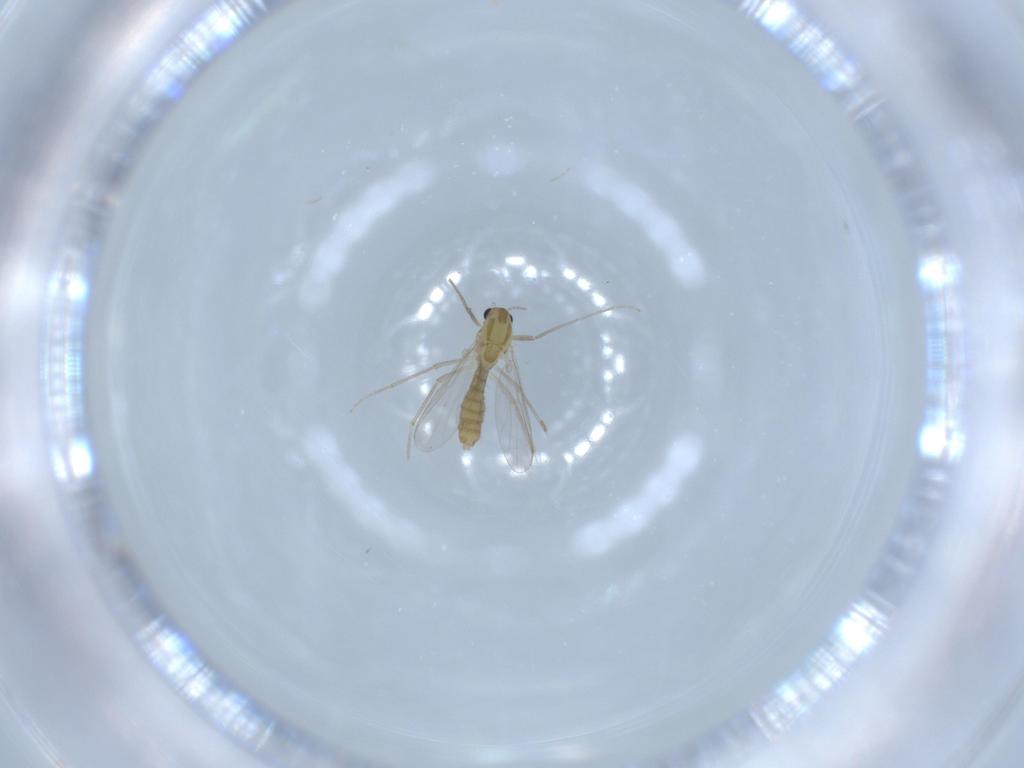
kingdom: Animalia
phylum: Arthropoda
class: Insecta
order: Diptera
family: Chironomidae
